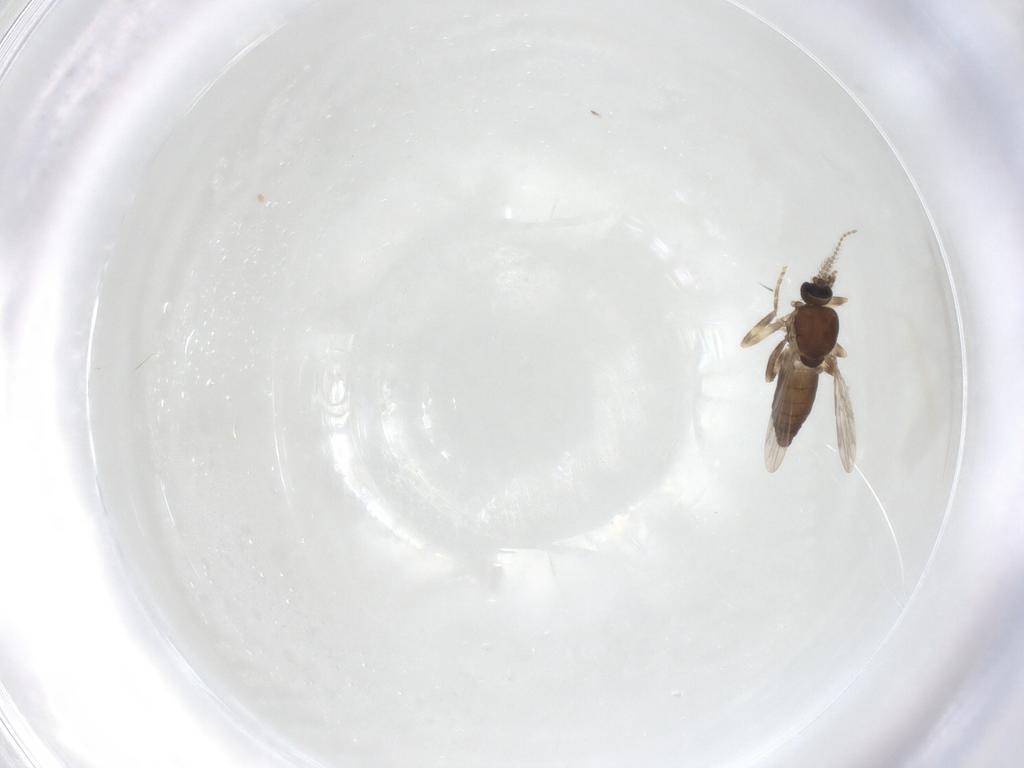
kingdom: Animalia
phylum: Arthropoda
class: Insecta
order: Diptera
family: Ceratopogonidae
